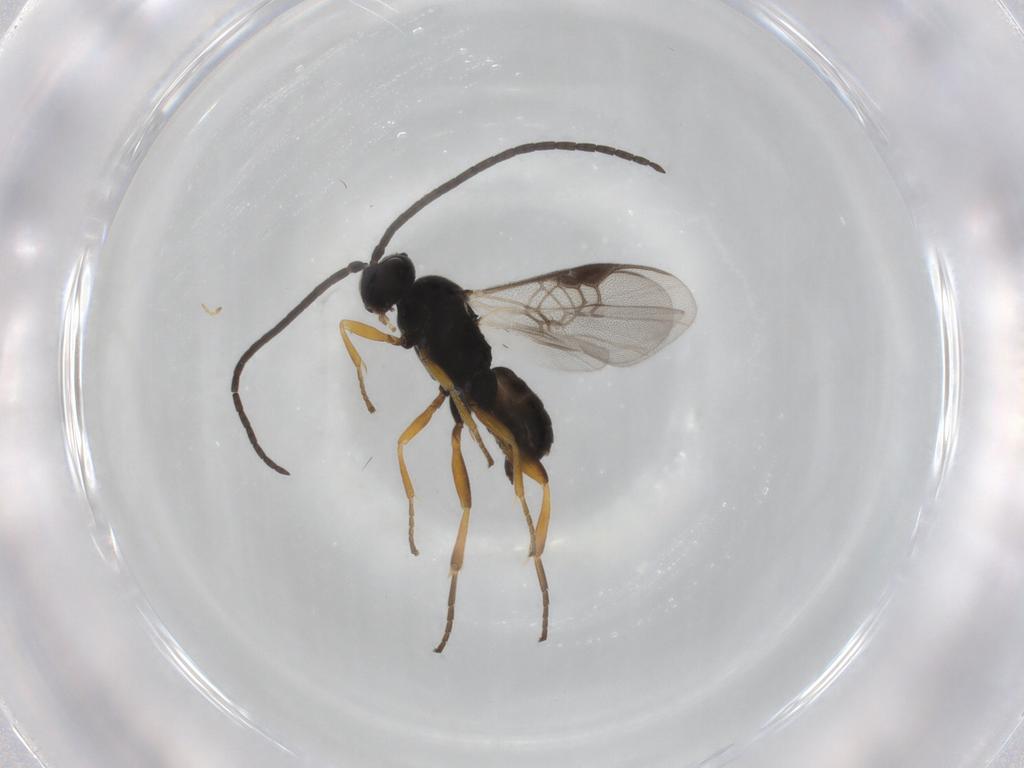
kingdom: Animalia
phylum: Arthropoda
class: Insecta
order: Hymenoptera
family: Braconidae
